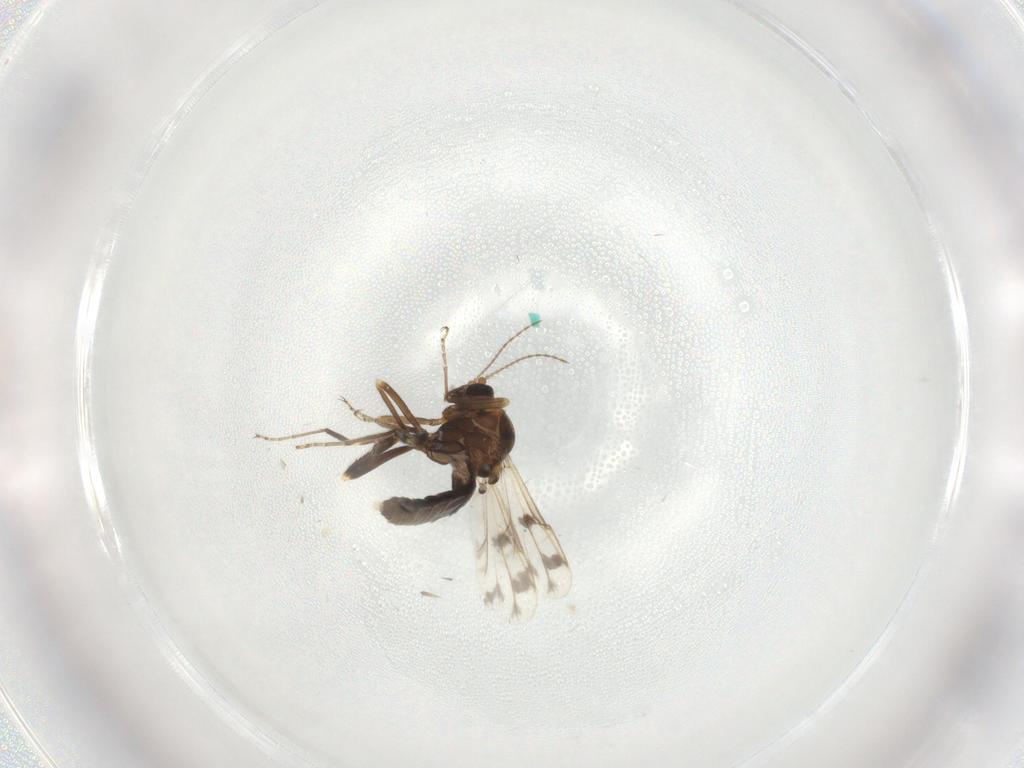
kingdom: Animalia
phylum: Arthropoda
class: Insecta
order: Diptera
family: Ceratopogonidae
